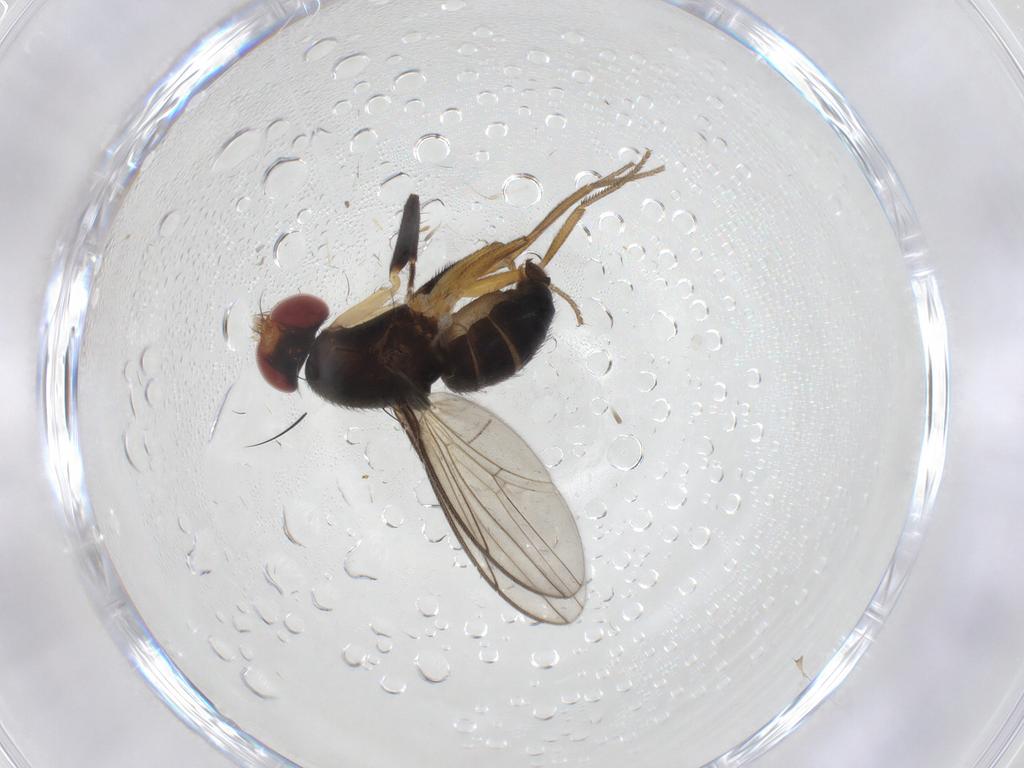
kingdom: Animalia
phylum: Arthropoda
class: Insecta
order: Diptera
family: Drosophilidae
